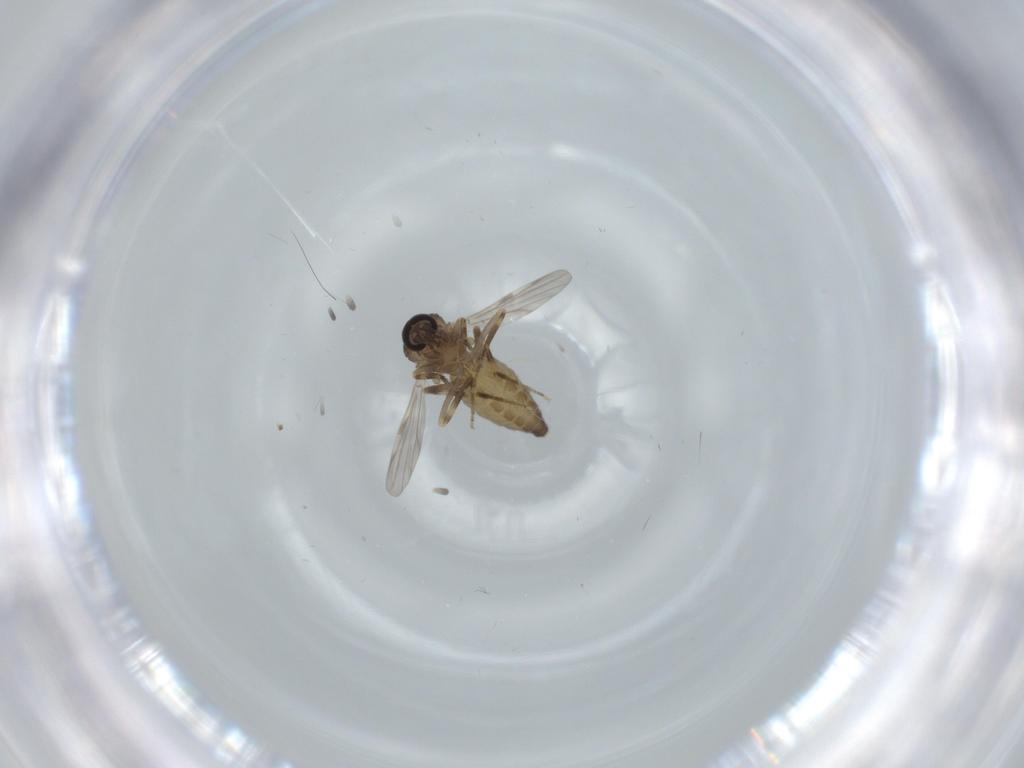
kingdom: Animalia
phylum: Arthropoda
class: Insecta
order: Diptera
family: Ceratopogonidae
